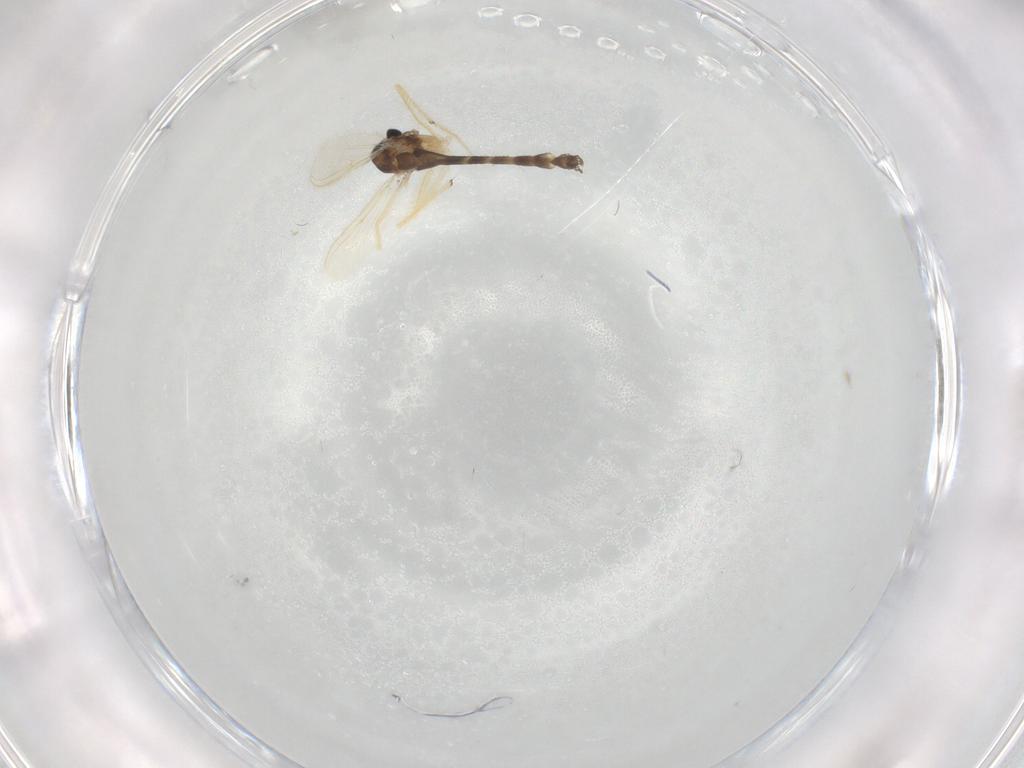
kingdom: Animalia
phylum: Arthropoda
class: Insecta
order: Diptera
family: Chironomidae
